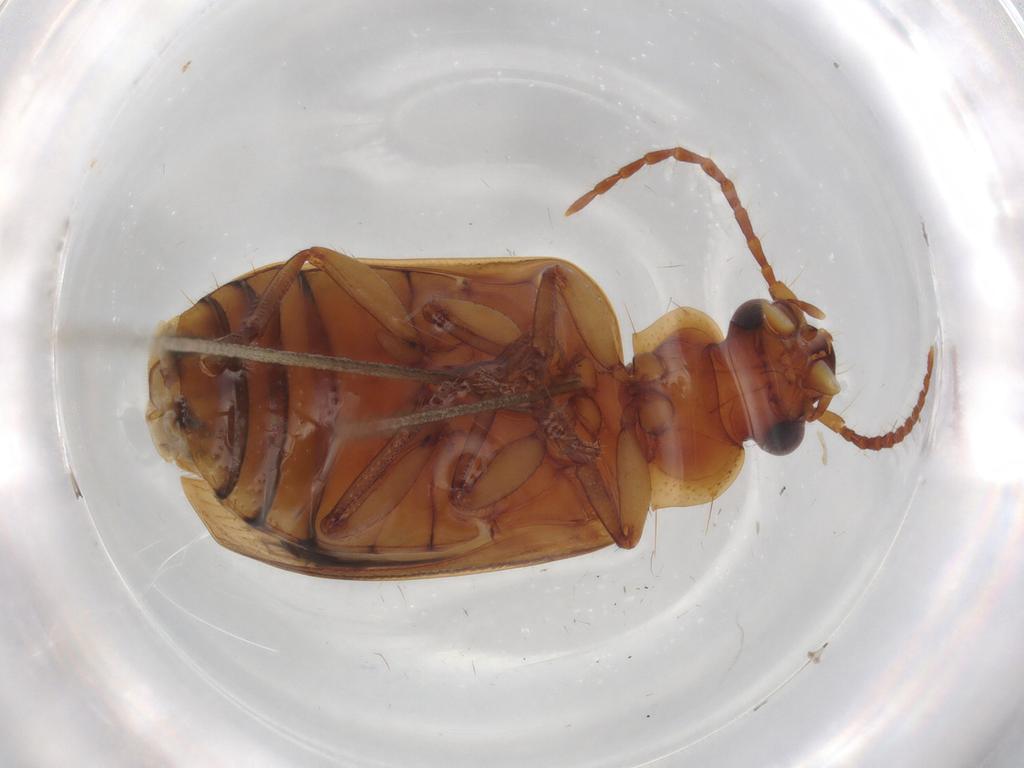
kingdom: Animalia
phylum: Arthropoda
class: Insecta
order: Coleoptera
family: Carabidae
